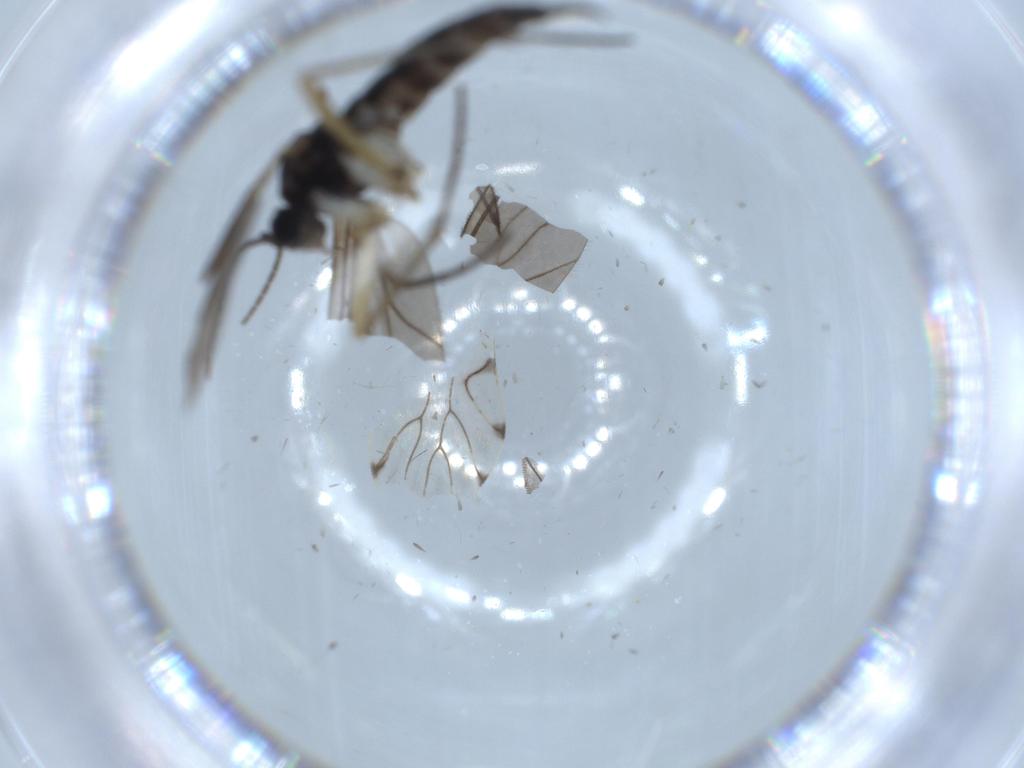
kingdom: Animalia
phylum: Arthropoda
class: Insecta
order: Diptera
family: Sciaridae
